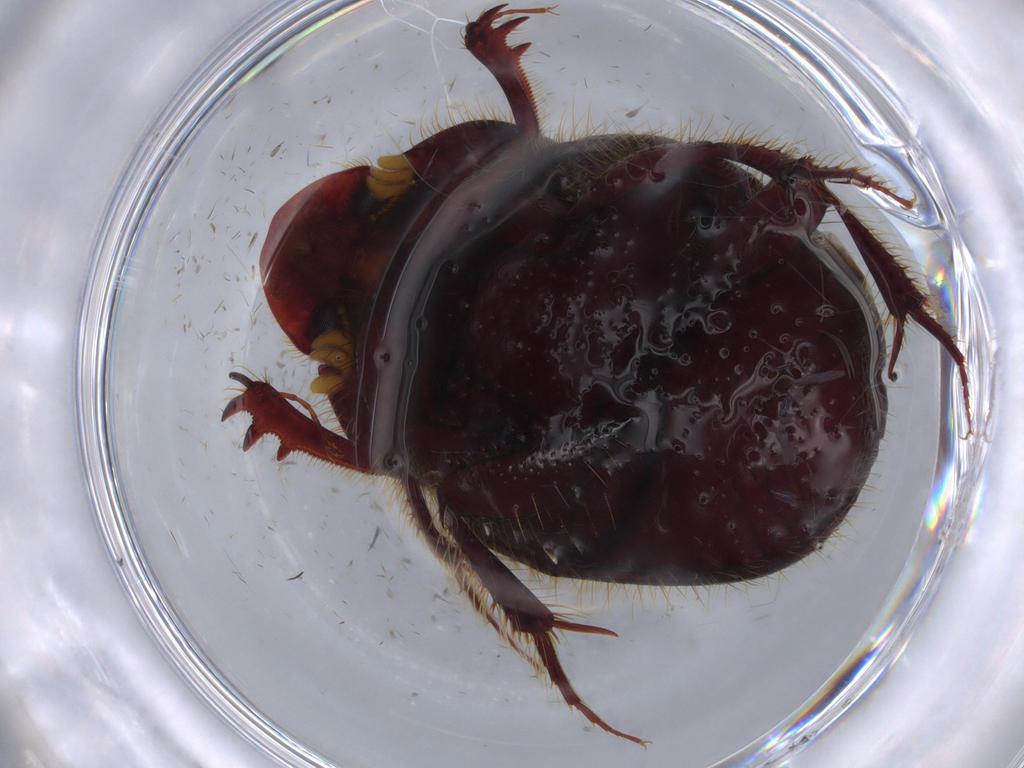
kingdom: Animalia
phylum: Arthropoda
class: Insecta
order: Coleoptera
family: Scarabaeidae
